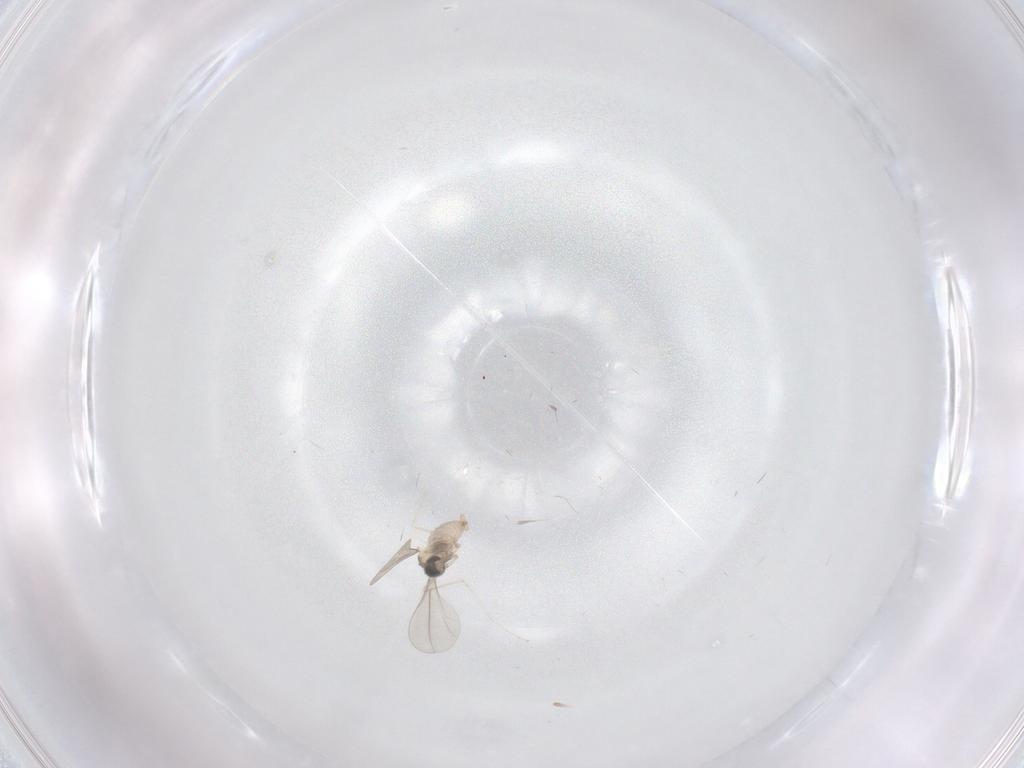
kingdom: Animalia
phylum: Arthropoda
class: Insecta
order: Diptera
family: Cecidomyiidae
